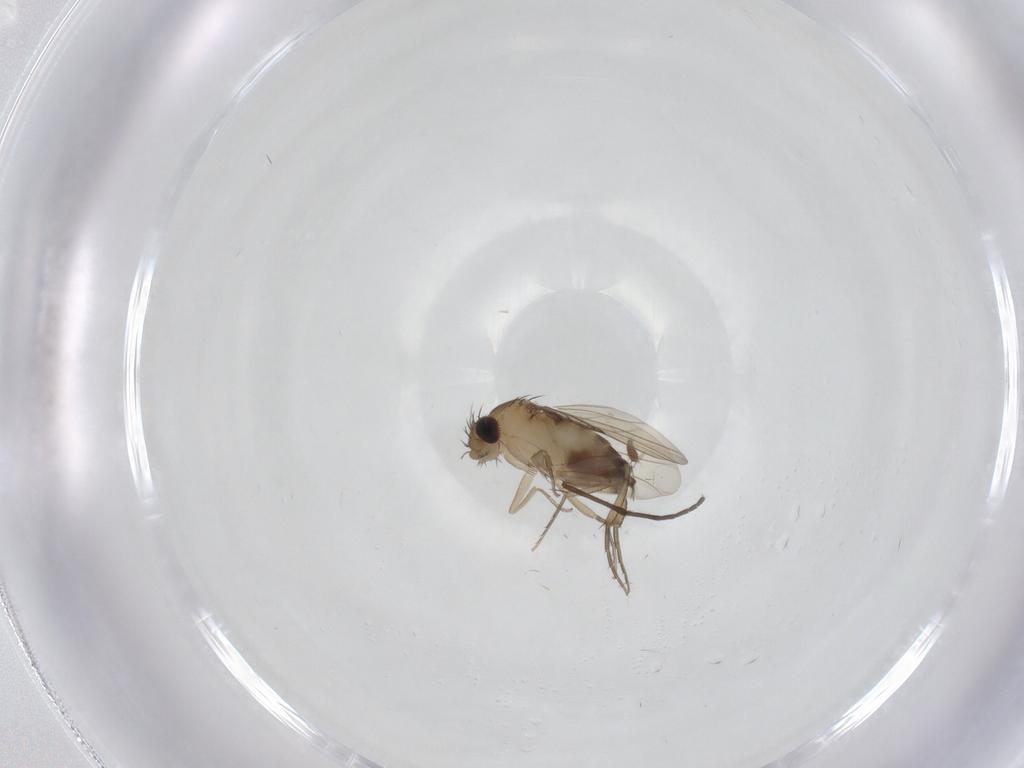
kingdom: Animalia
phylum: Arthropoda
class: Insecta
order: Diptera
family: Phoridae
